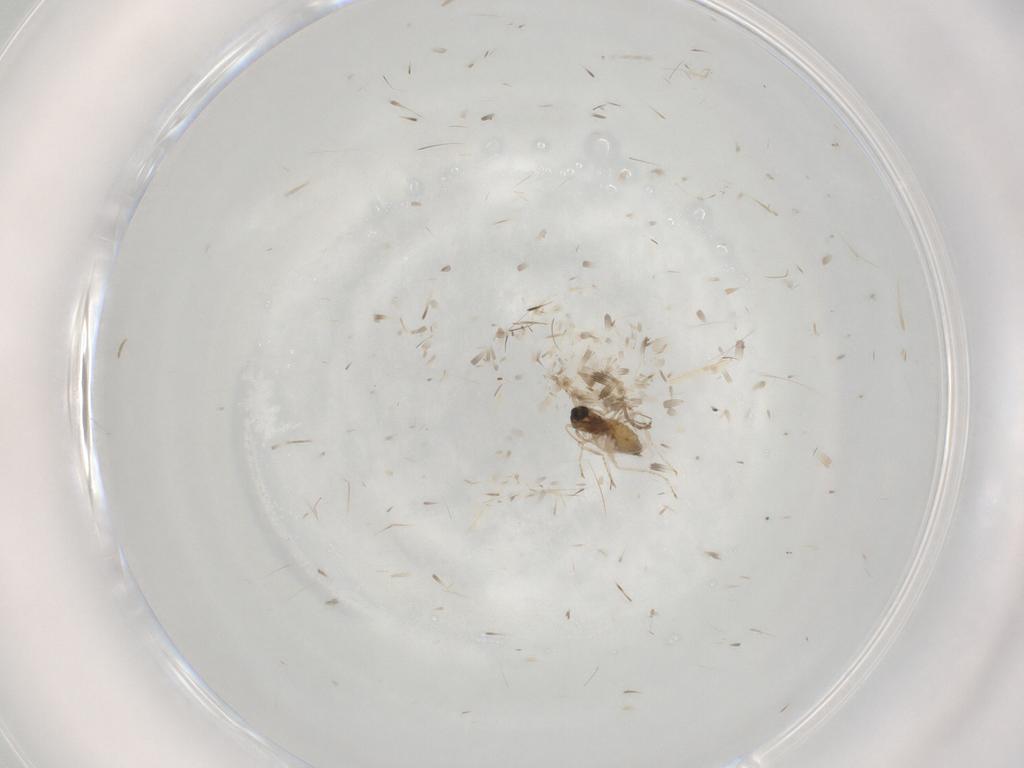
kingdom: Animalia
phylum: Arthropoda
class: Insecta
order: Diptera
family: Cecidomyiidae
